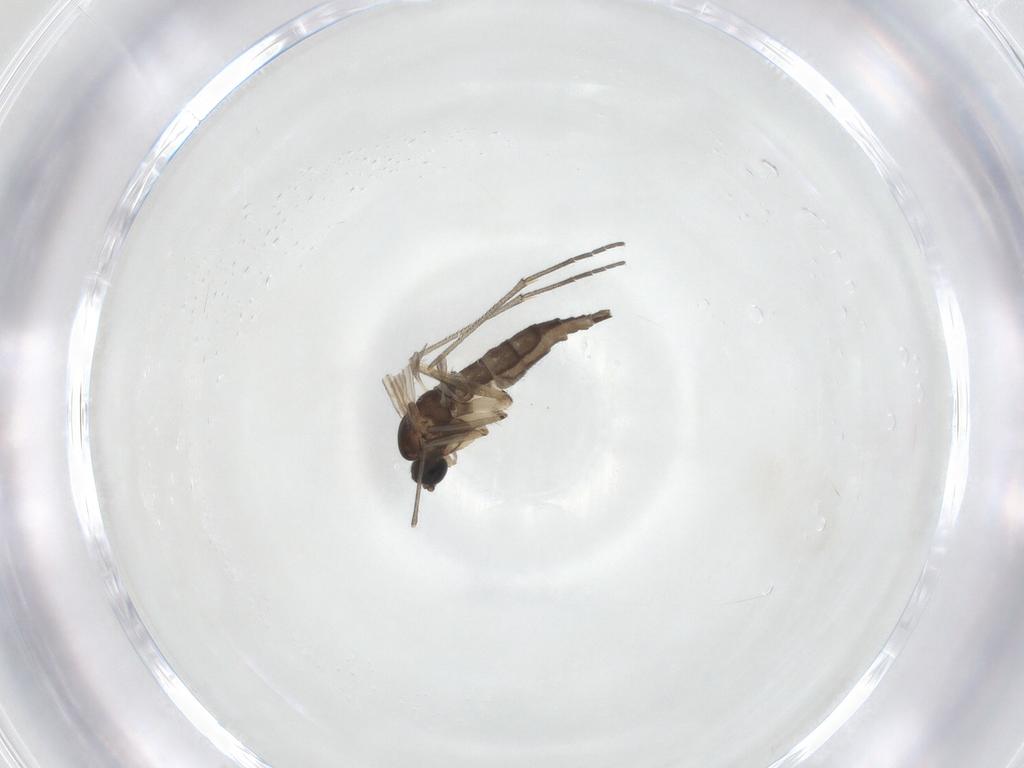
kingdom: Animalia
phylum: Arthropoda
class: Insecta
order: Diptera
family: Sciaridae
